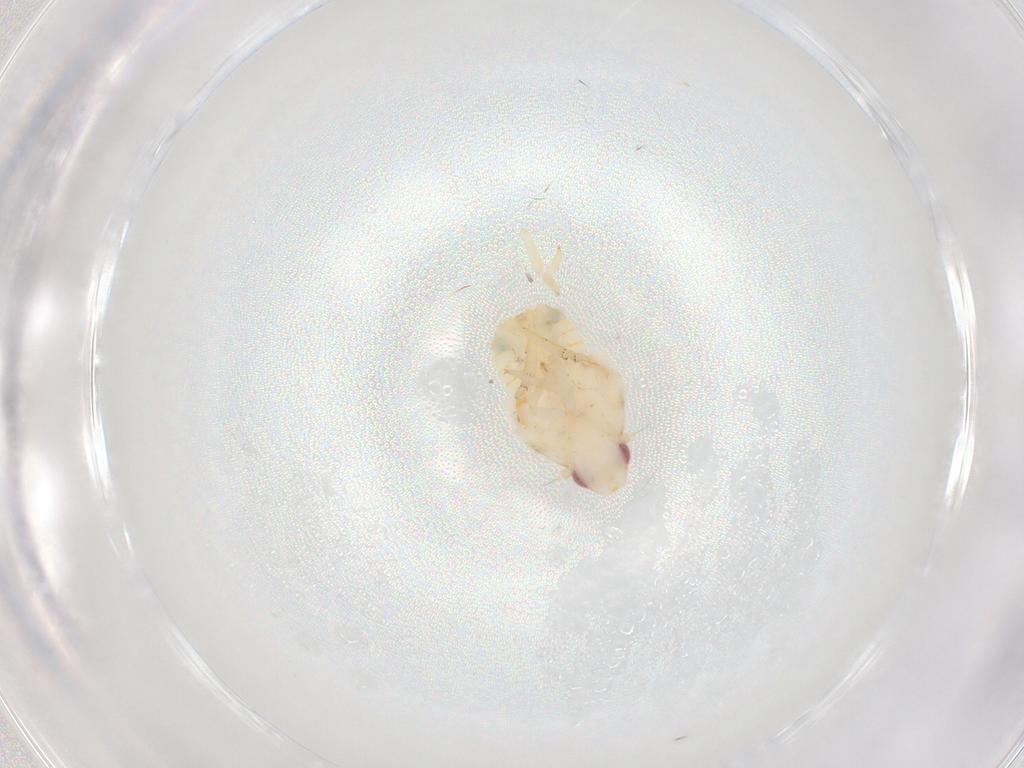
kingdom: Animalia
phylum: Arthropoda
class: Insecta
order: Hemiptera
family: Flatidae
